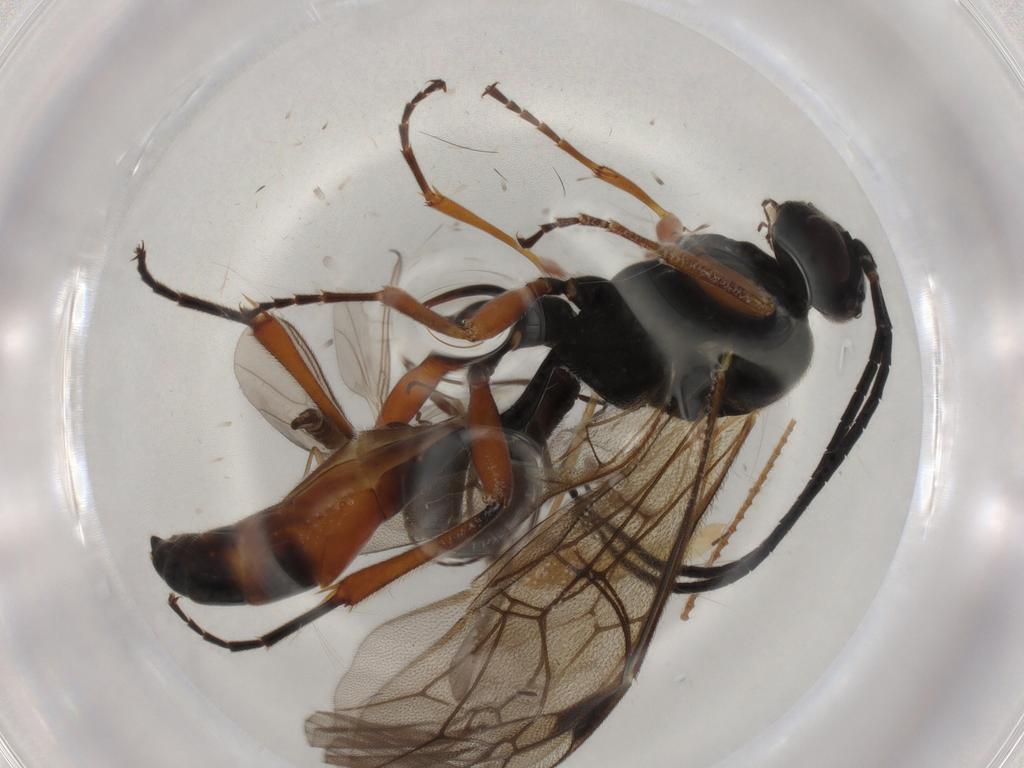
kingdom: Animalia
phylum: Arthropoda
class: Insecta
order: Diptera
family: Sciaridae
